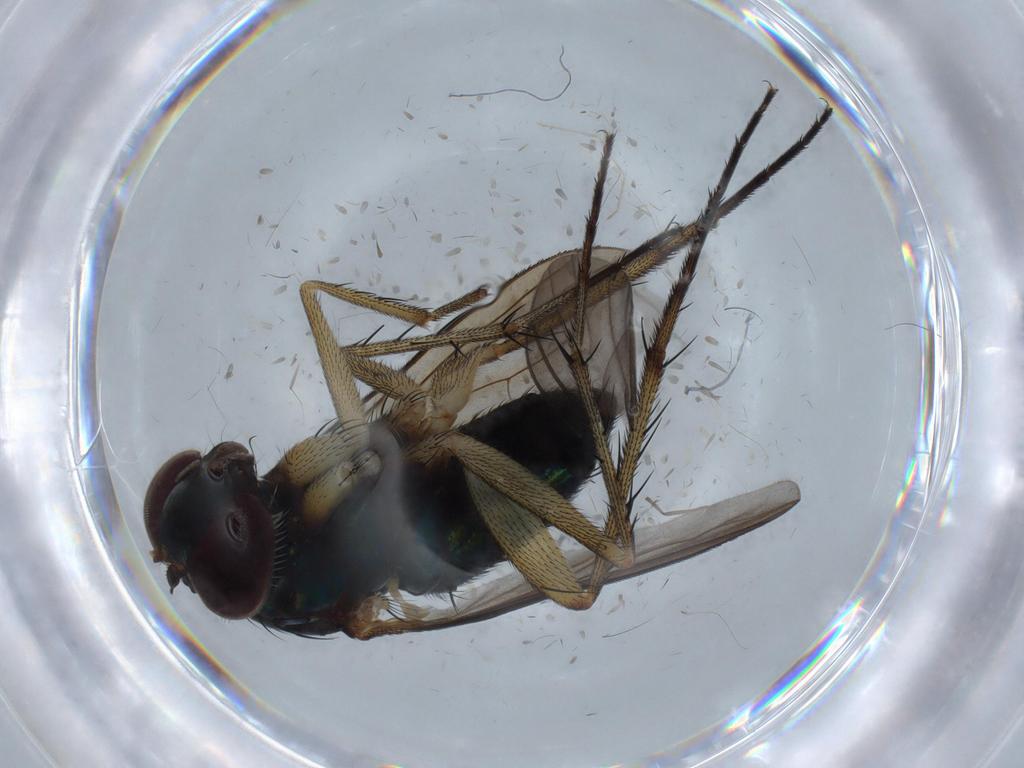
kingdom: Animalia
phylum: Arthropoda
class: Insecta
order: Diptera
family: Dolichopodidae
